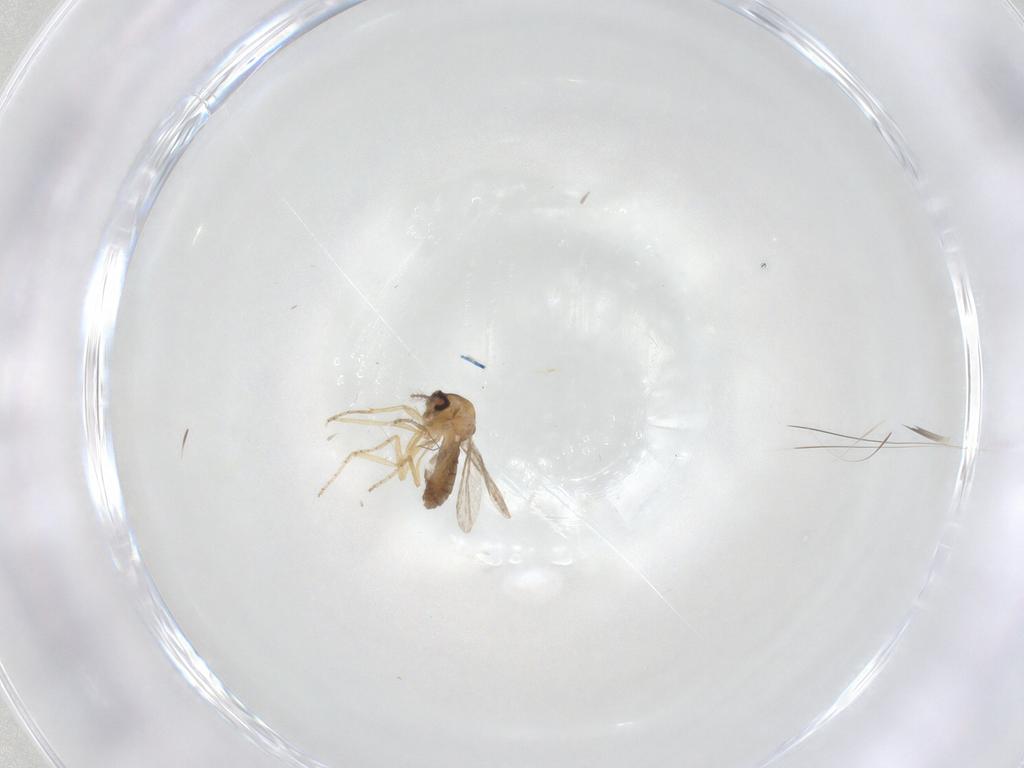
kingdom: Animalia
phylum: Arthropoda
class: Insecta
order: Diptera
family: Ceratopogonidae
